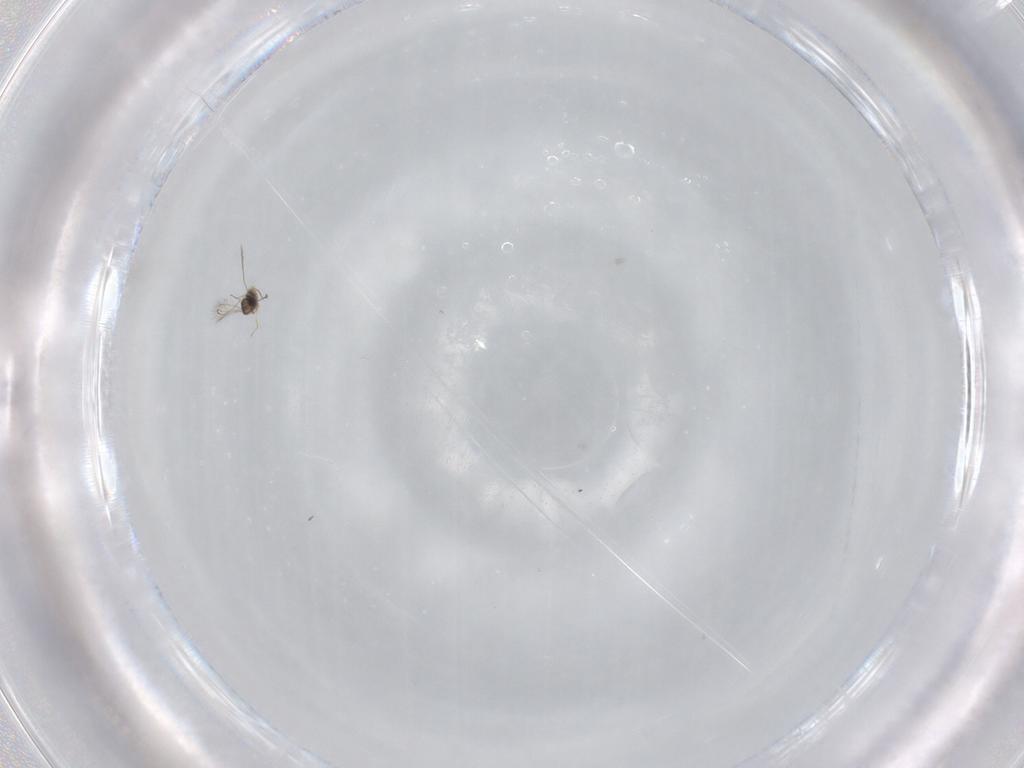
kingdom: Animalia
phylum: Arthropoda
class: Insecta
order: Hymenoptera
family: Mymaridae
